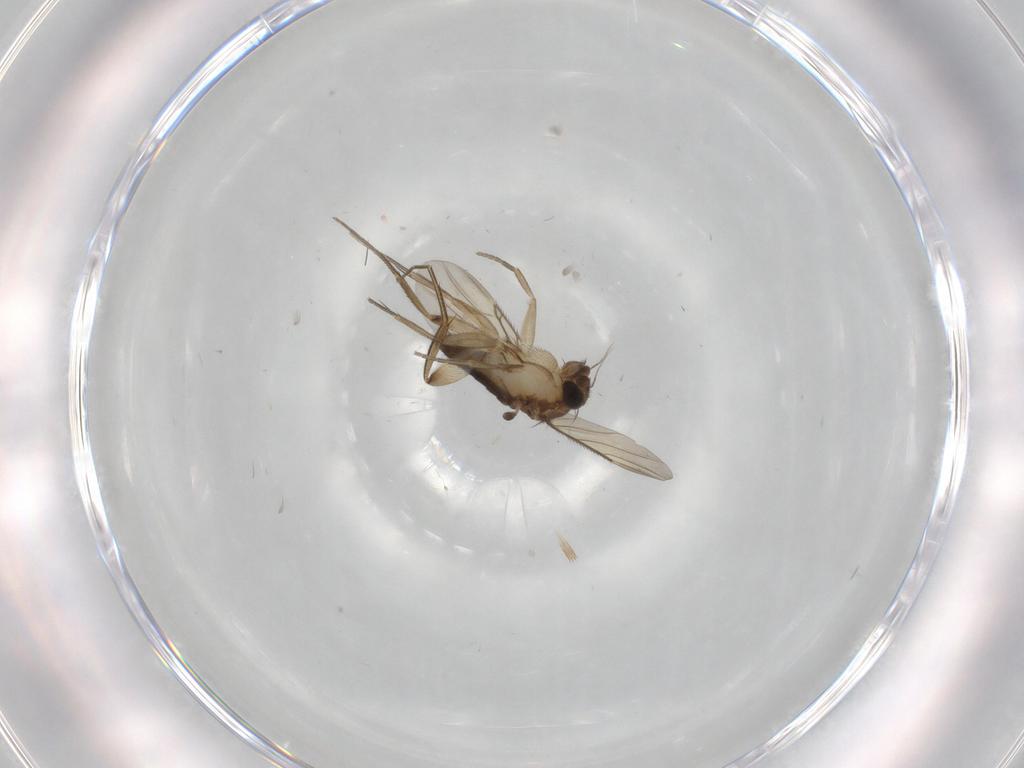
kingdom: Animalia
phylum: Arthropoda
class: Insecta
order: Diptera
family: Phoridae
